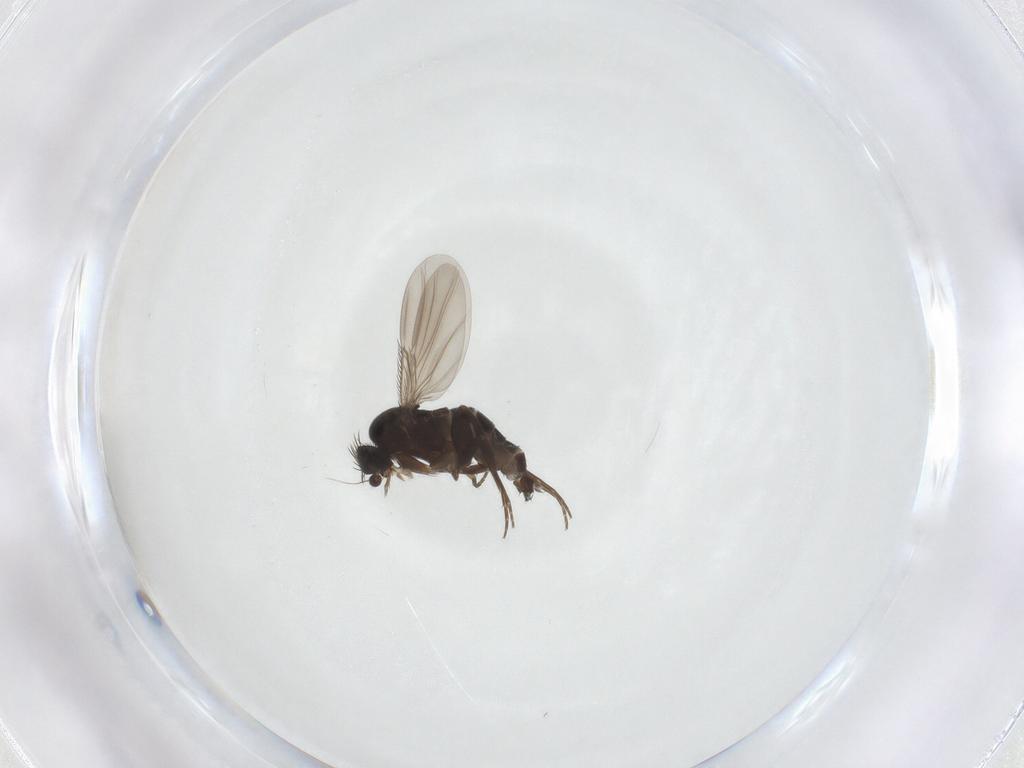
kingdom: Animalia
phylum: Arthropoda
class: Insecta
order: Diptera
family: Phoridae
